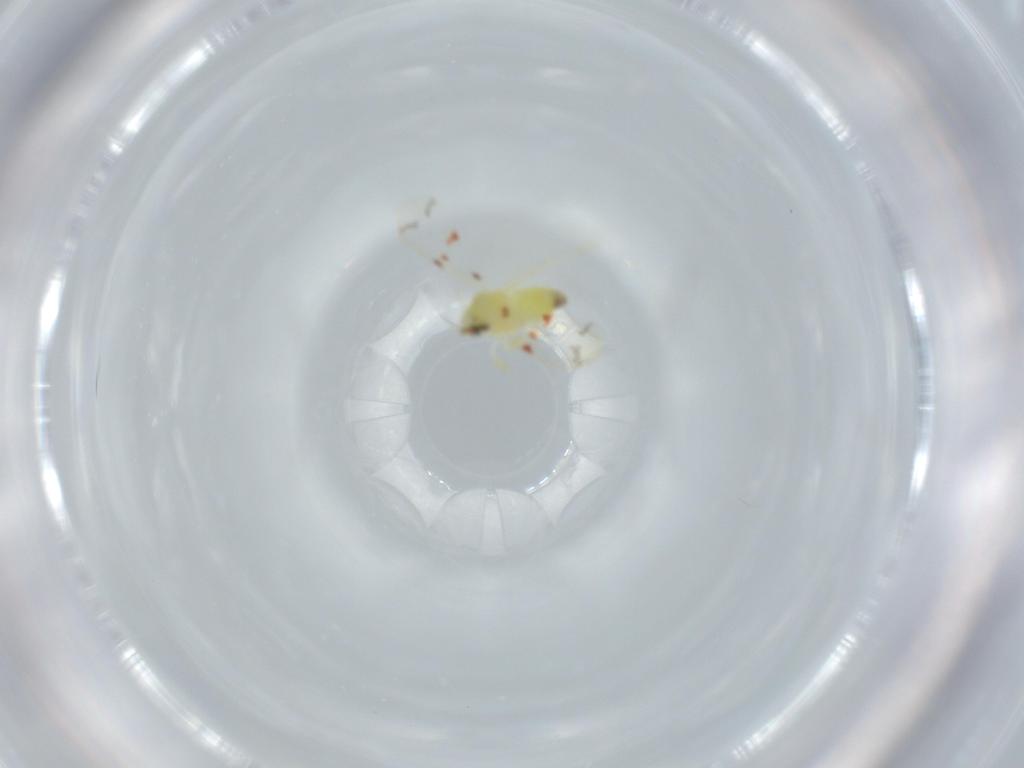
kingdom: Animalia
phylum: Arthropoda
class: Insecta
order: Hemiptera
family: Aleyrodidae
